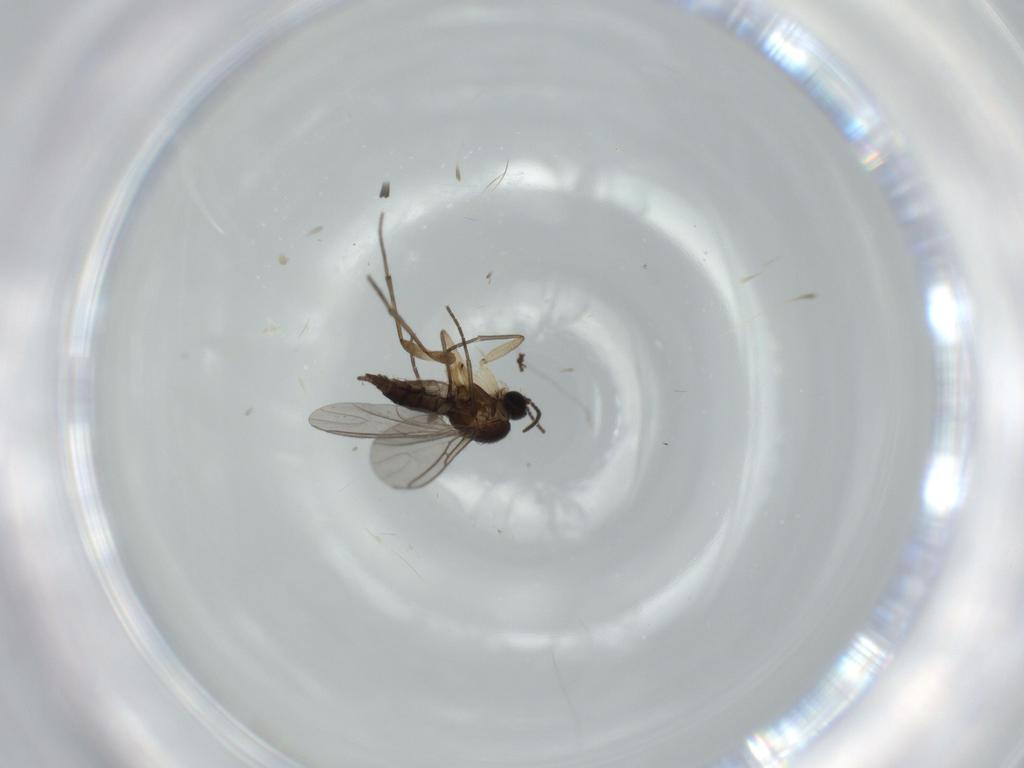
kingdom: Animalia
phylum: Arthropoda
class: Insecta
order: Diptera
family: Sciaridae
